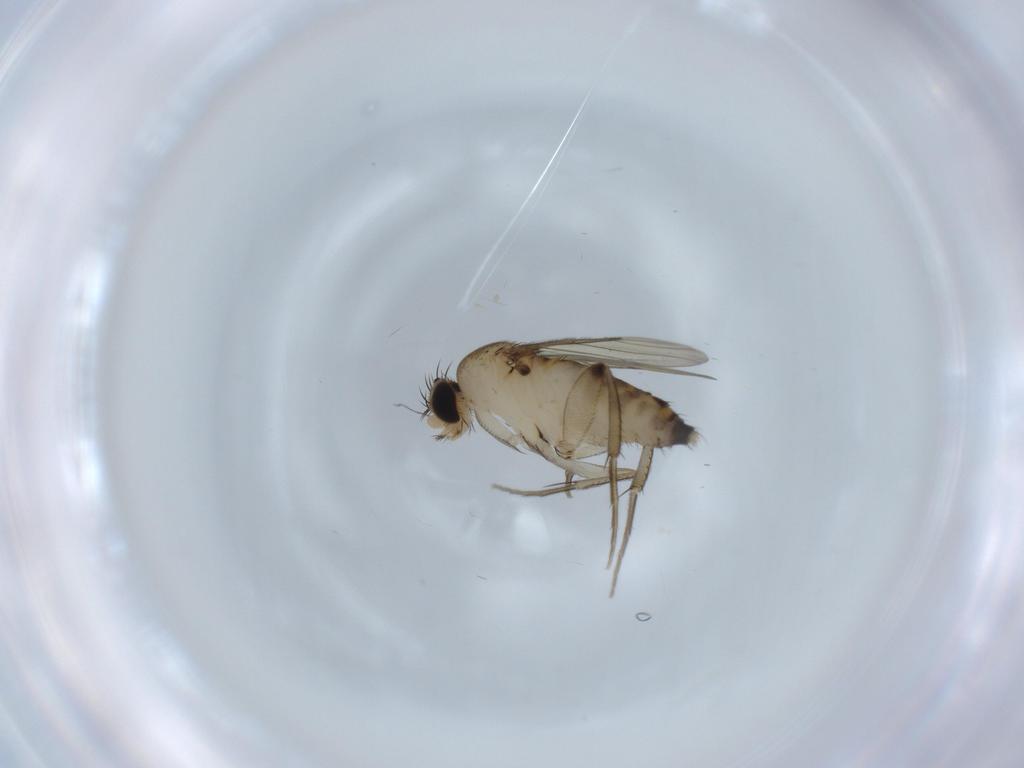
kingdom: Animalia
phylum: Arthropoda
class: Insecta
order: Diptera
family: Phoridae
